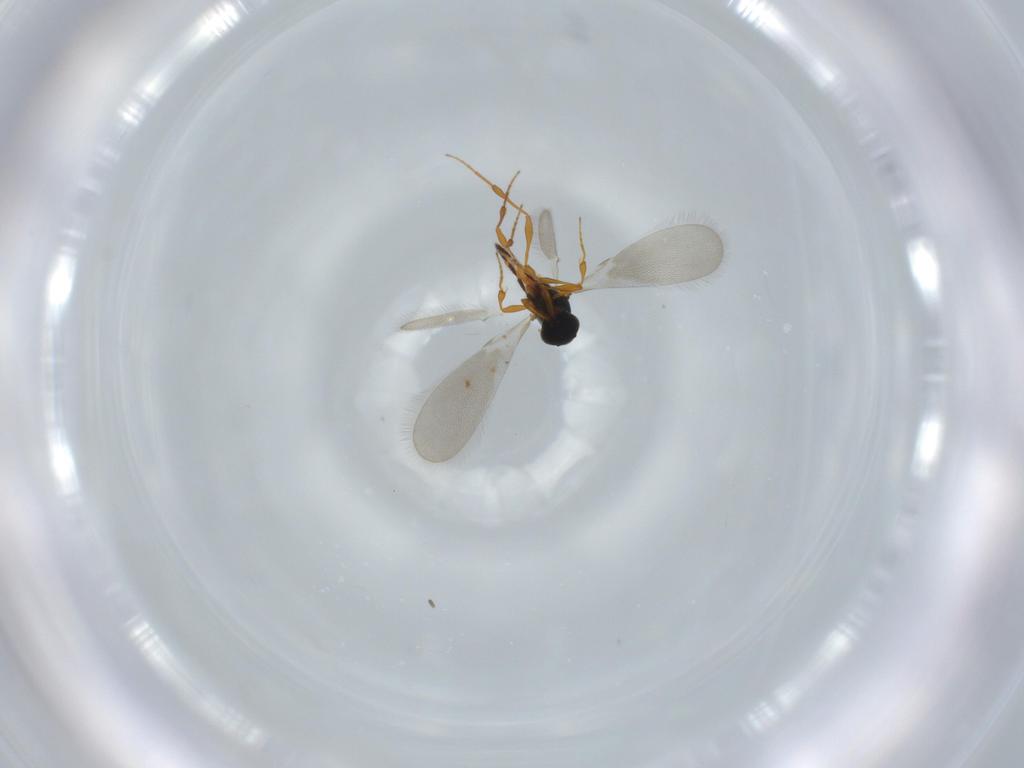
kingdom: Animalia
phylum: Arthropoda
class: Insecta
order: Hymenoptera
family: Platygastridae
